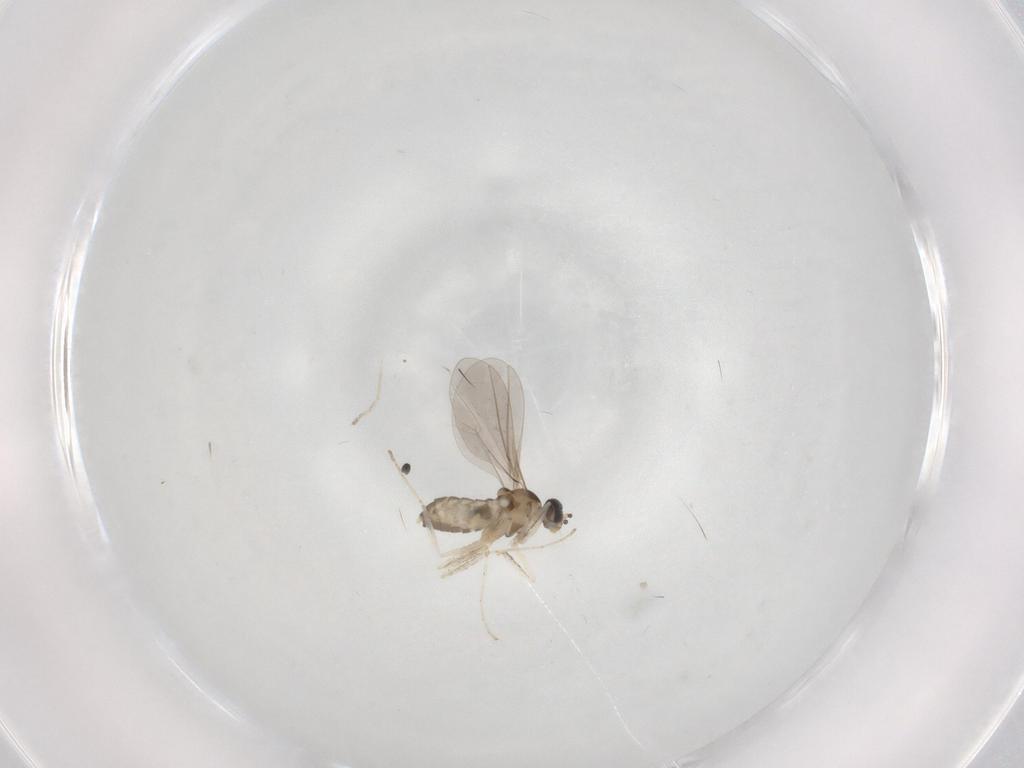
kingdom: Animalia
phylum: Arthropoda
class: Insecta
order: Diptera
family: Cecidomyiidae
